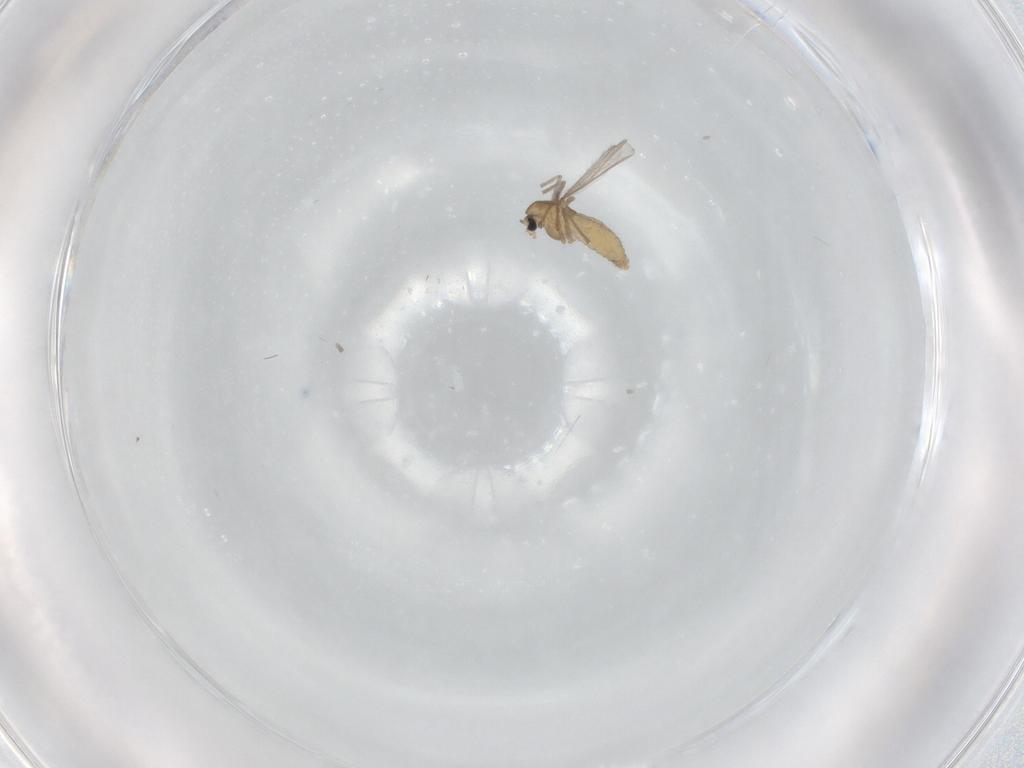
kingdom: Animalia
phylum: Arthropoda
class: Insecta
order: Diptera
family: Chironomidae
